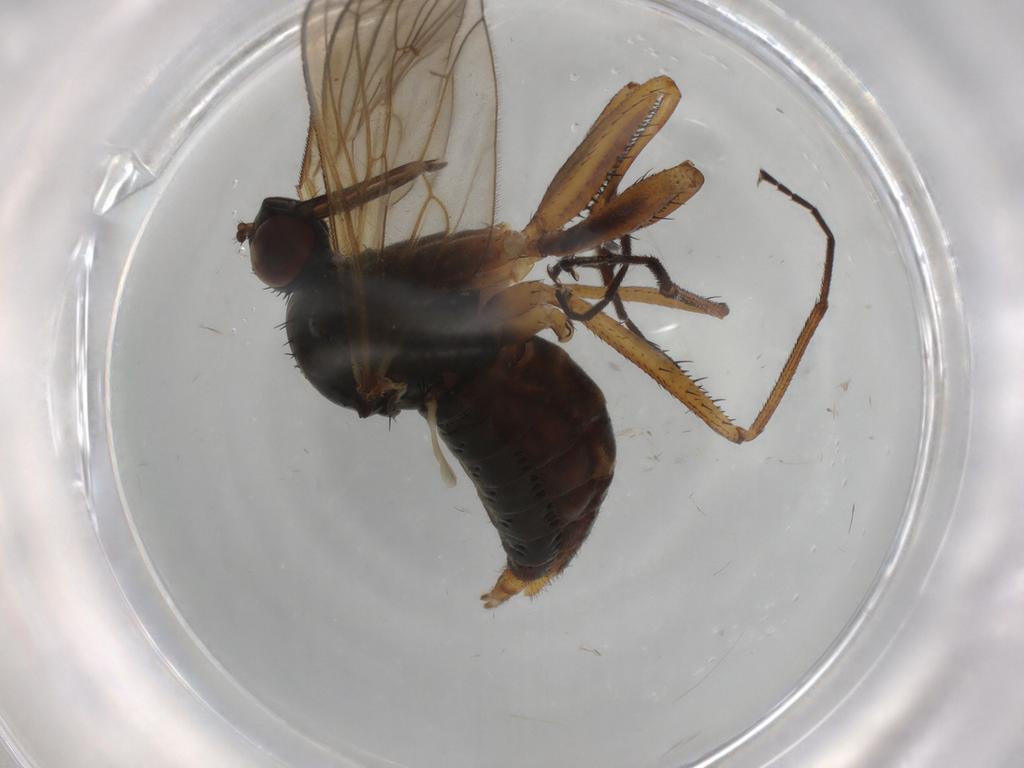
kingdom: Animalia
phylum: Arthropoda
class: Insecta
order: Diptera
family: Empididae
